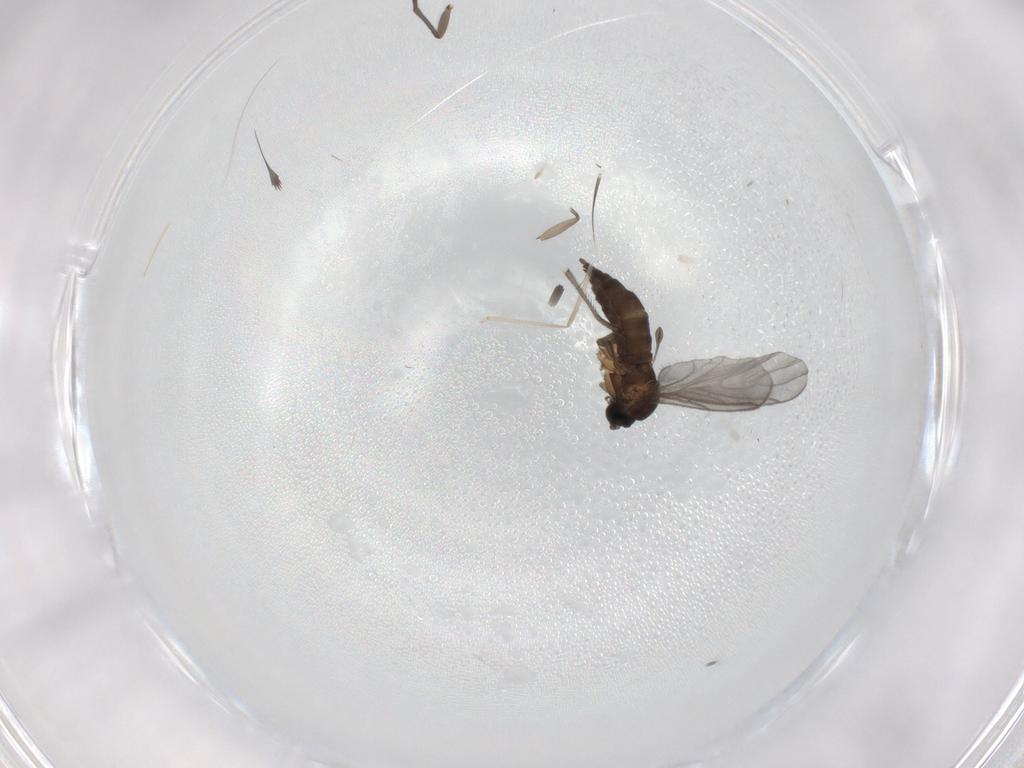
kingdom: Animalia
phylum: Arthropoda
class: Insecta
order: Diptera
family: Sciaridae
